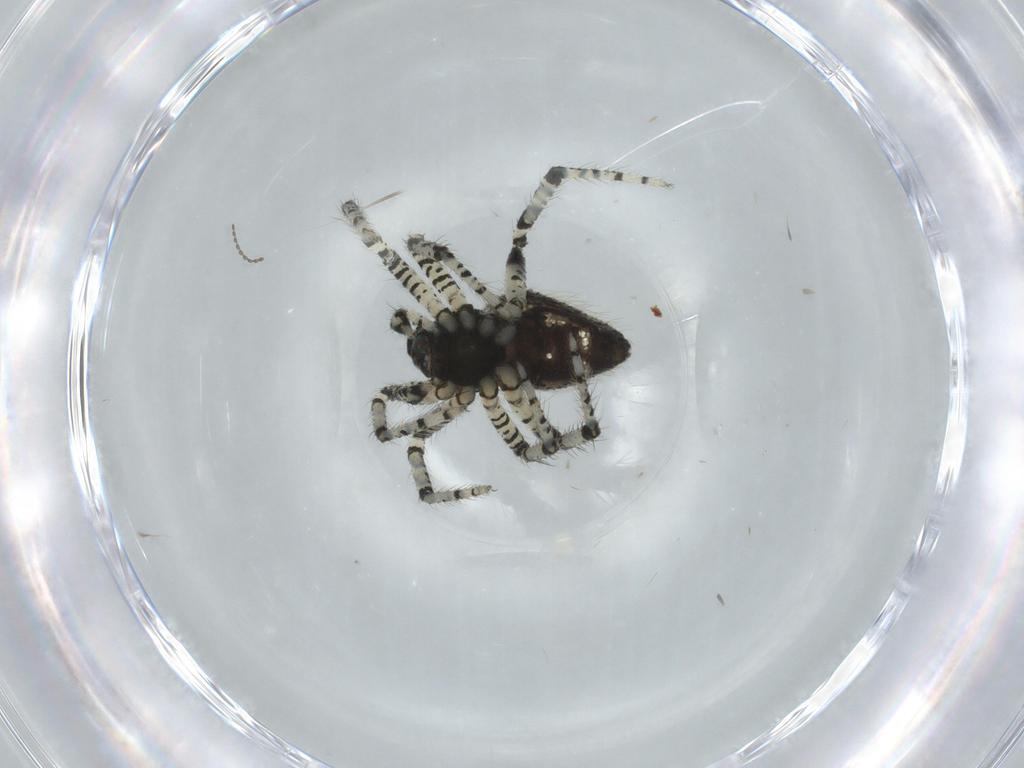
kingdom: Animalia
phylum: Arthropoda
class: Arachnida
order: Araneae
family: Theridiidae
